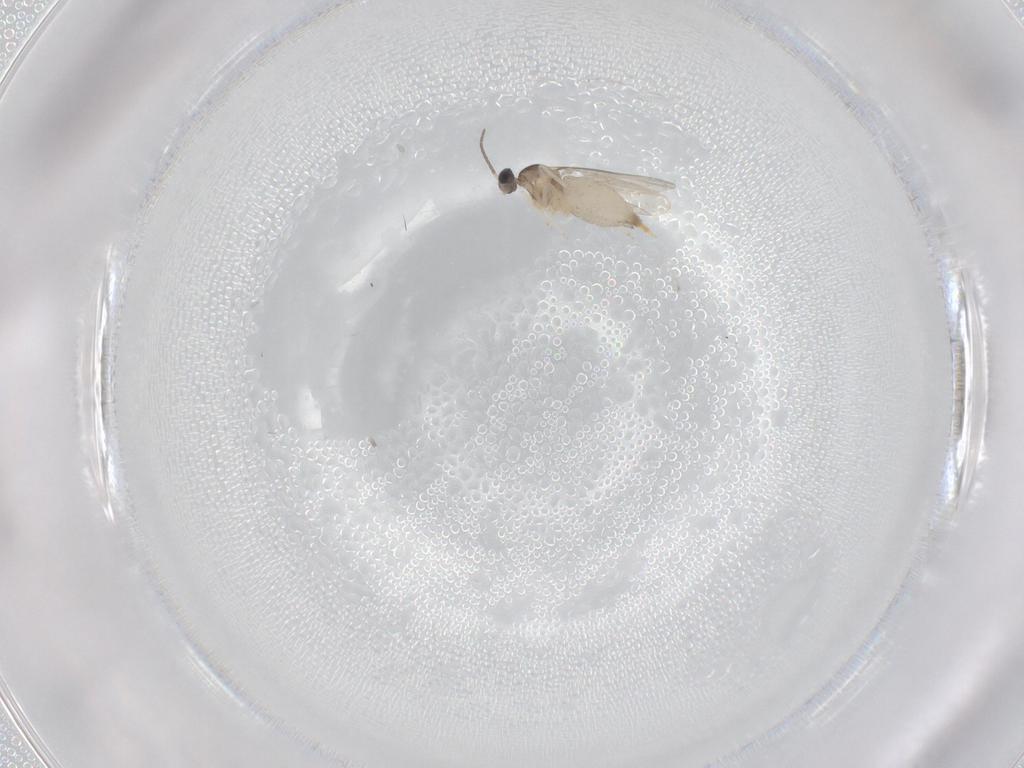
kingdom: Animalia
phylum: Arthropoda
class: Insecta
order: Diptera
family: Cecidomyiidae
